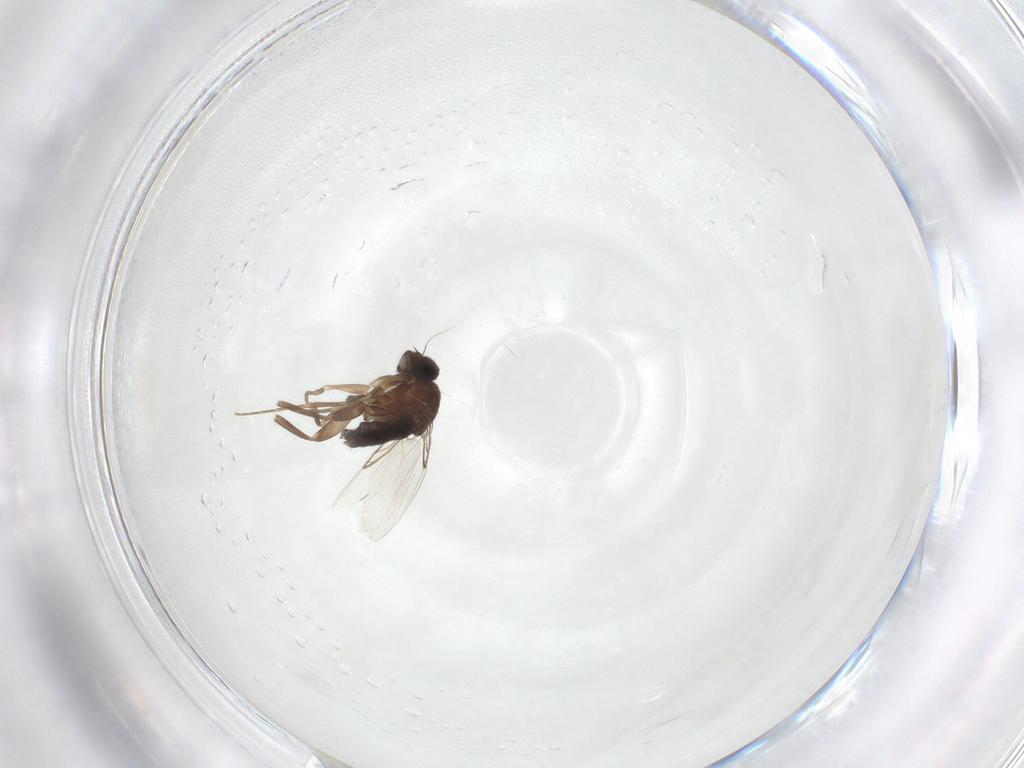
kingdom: Animalia
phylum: Arthropoda
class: Insecta
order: Diptera
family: Phoridae
